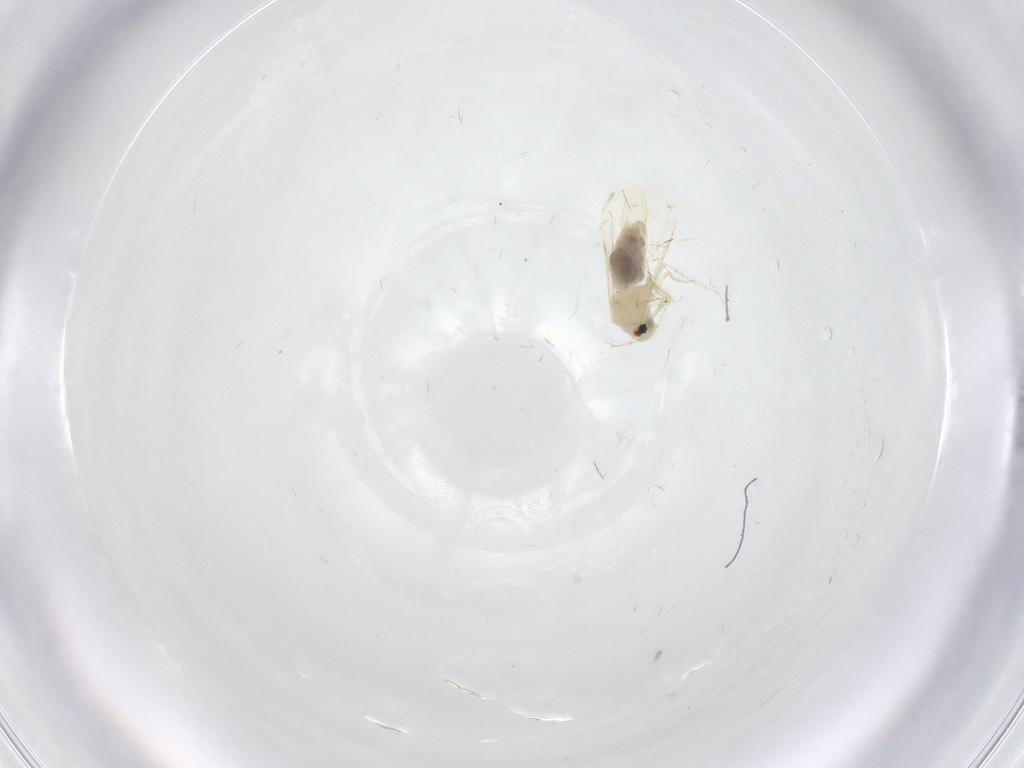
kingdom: Animalia
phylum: Arthropoda
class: Insecta
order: Hemiptera
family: Aleyrodidae
